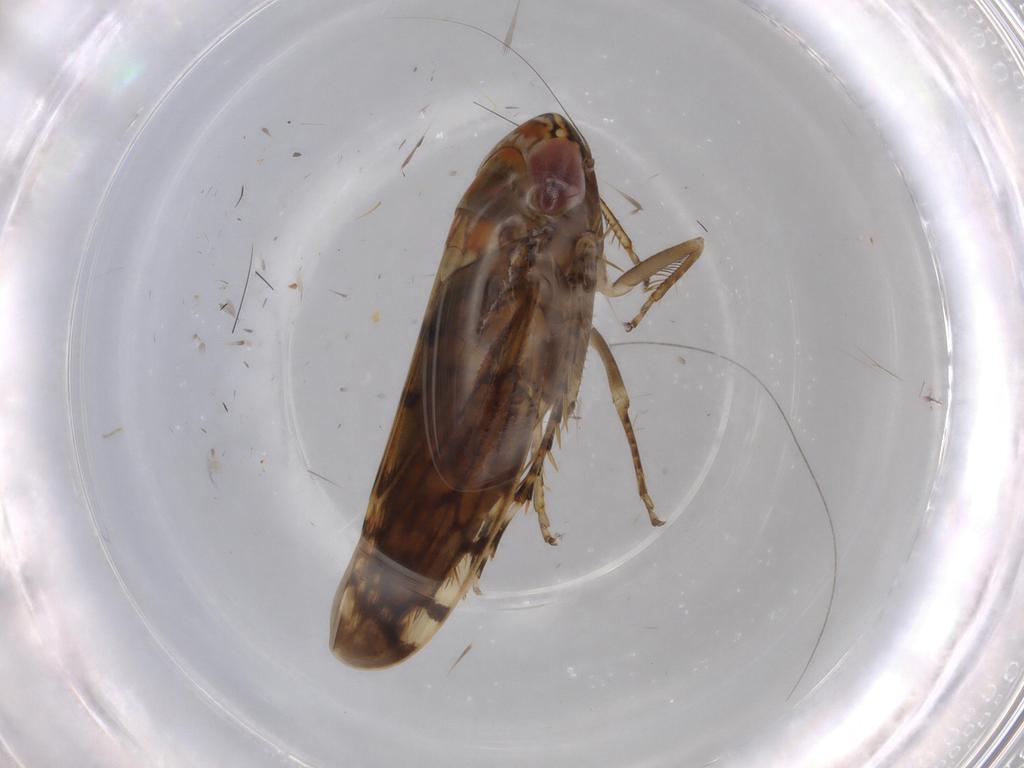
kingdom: Animalia
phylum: Arthropoda
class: Insecta
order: Hemiptera
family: Cicadellidae
